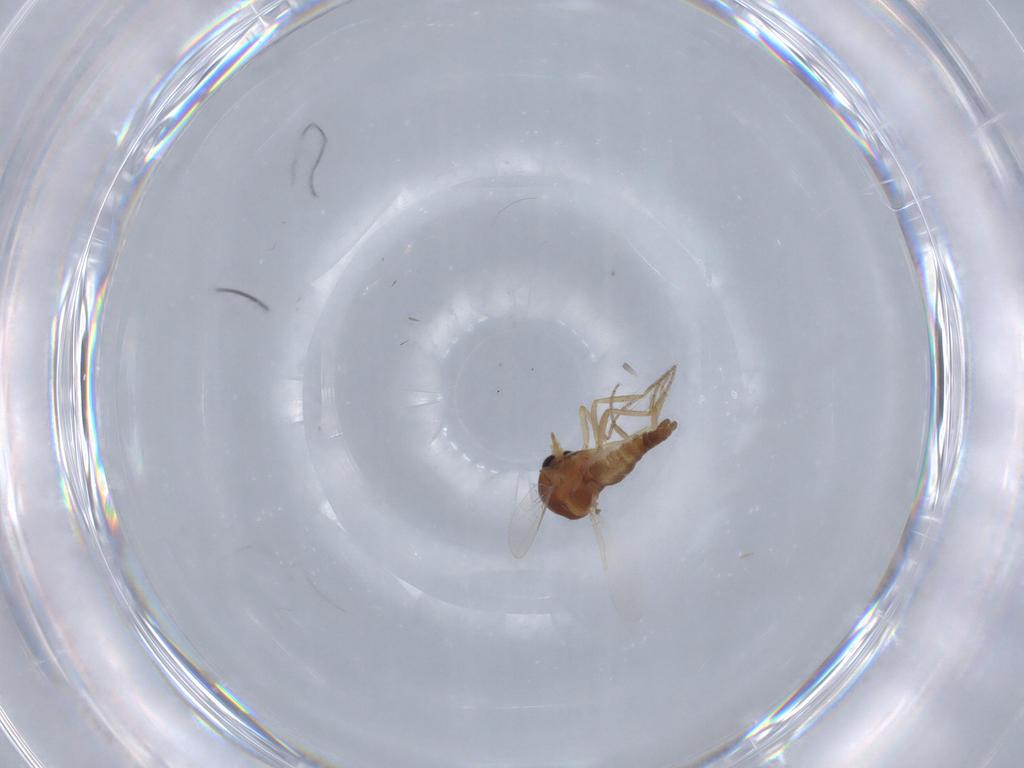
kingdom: Animalia
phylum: Arthropoda
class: Insecta
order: Diptera
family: Ceratopogonidae
